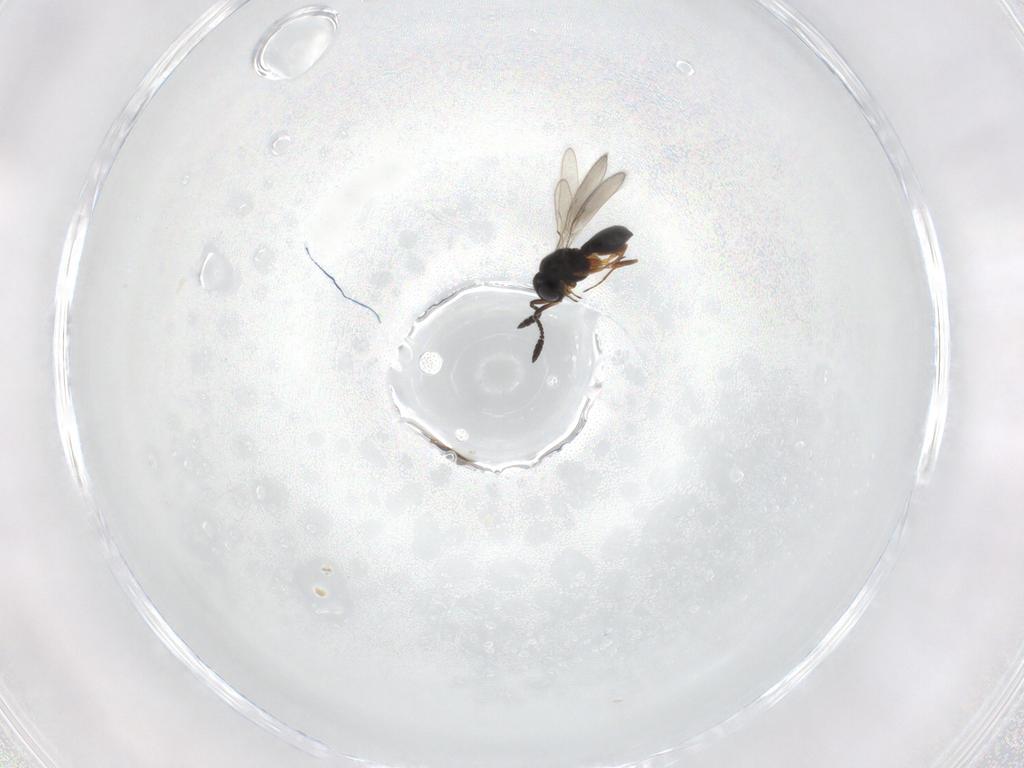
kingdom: Animalia
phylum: Arthropoda
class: Insecta
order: Hymenoptera
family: Scelionidae
